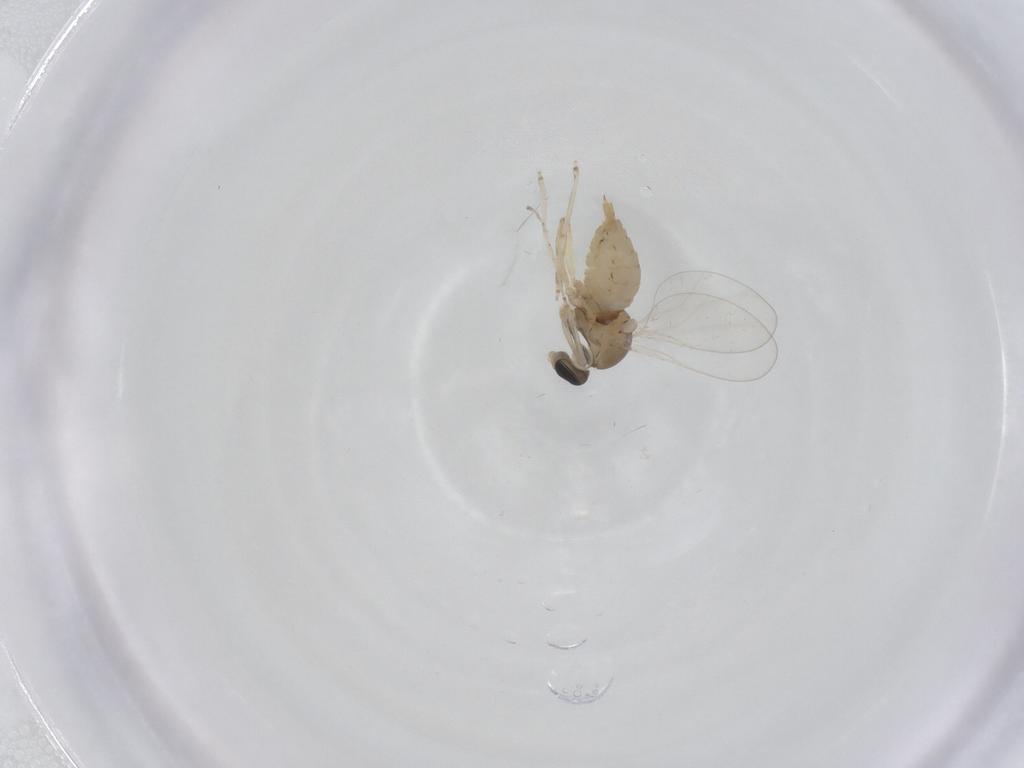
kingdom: Animalia
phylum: Arthropoda
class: Insecta
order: Diptera
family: Cecidomyiidae
